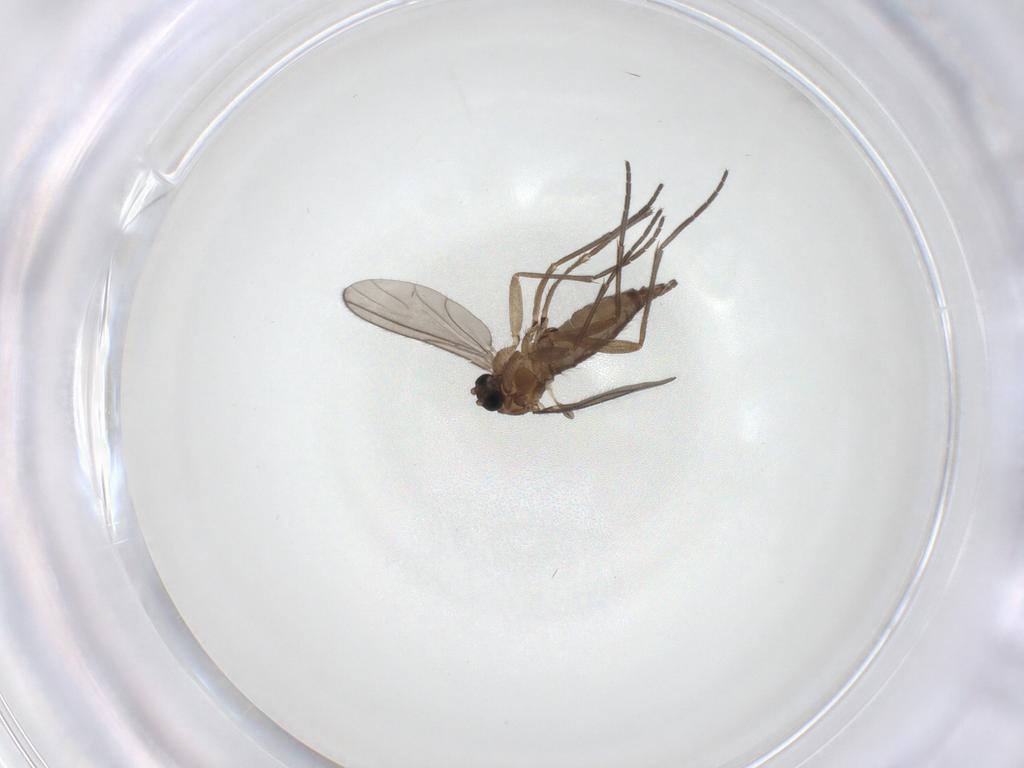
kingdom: Animalia
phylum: Arthropoda
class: Insecta
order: Diptera
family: Sciaridae
